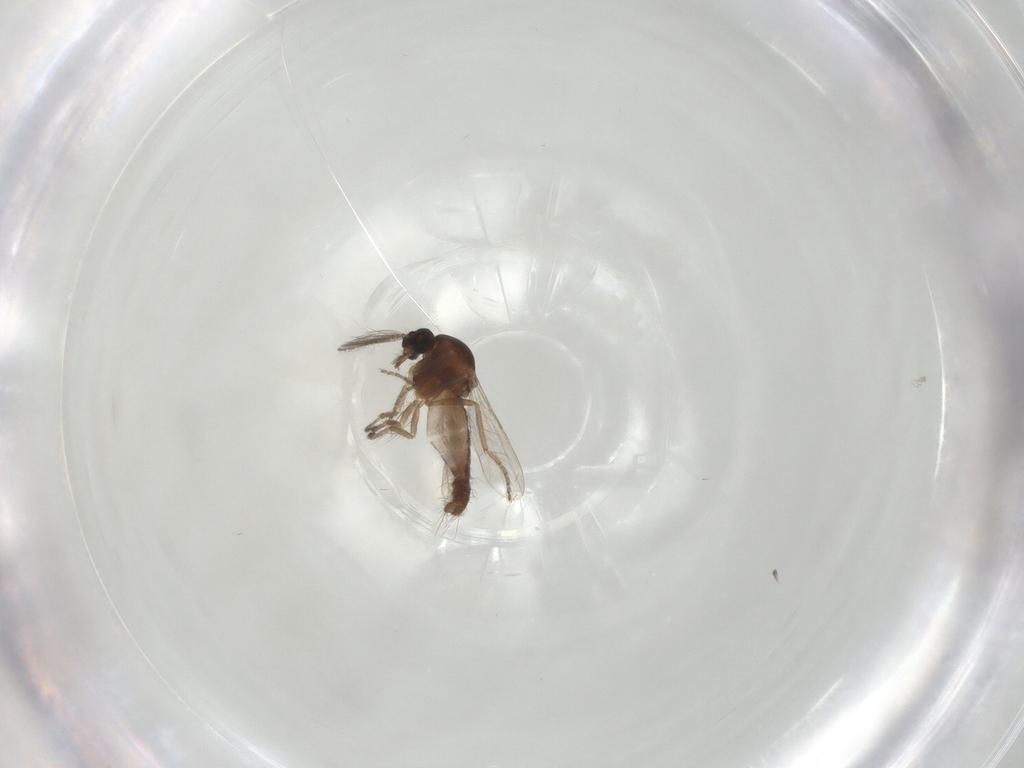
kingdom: Animalia
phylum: Arthropoda
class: Insecta
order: Diptera
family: Ceratopogonidae
